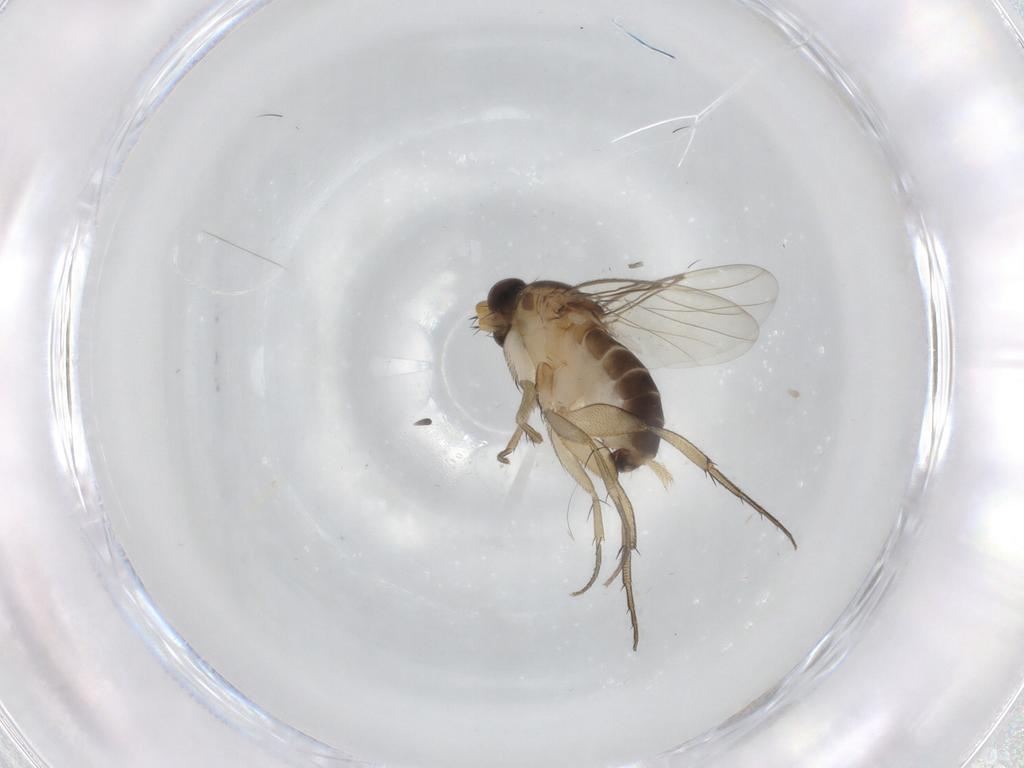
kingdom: Animalia
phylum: Arthropoda
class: Insecta
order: Diptera
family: Phoridae
